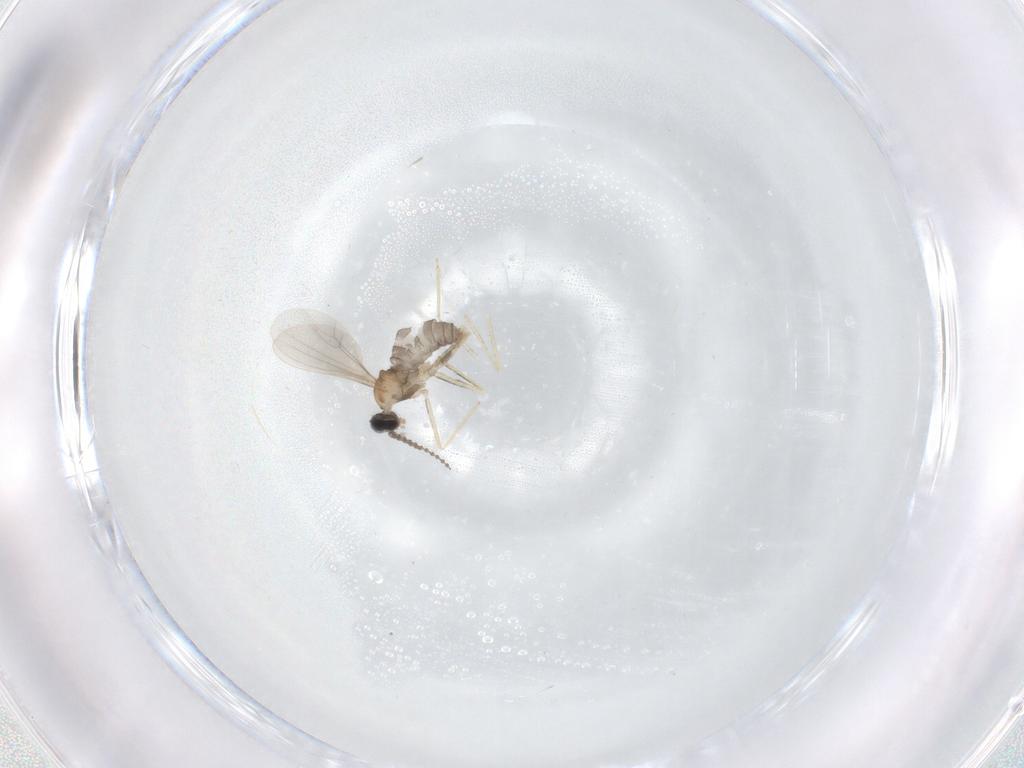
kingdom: Animalia
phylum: Arthropoda
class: Insecta
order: Diptera
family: Cecidomyiidae
